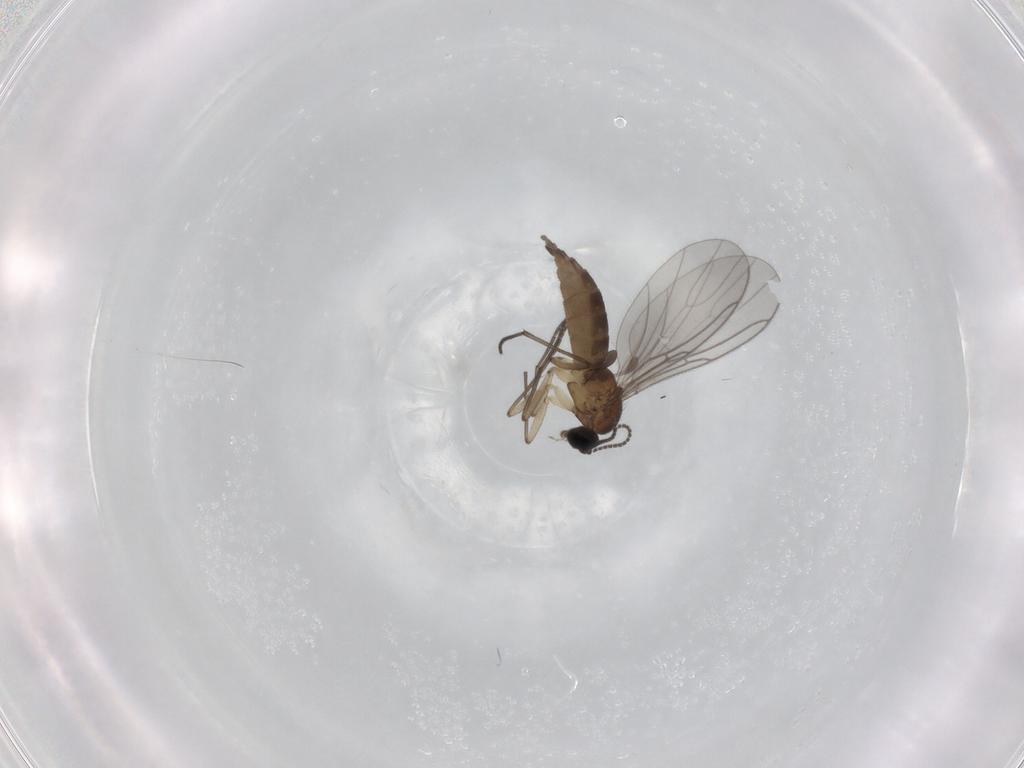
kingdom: Animalia
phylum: Arthropoda
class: Insecta
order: Diptera
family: Sciaridae
